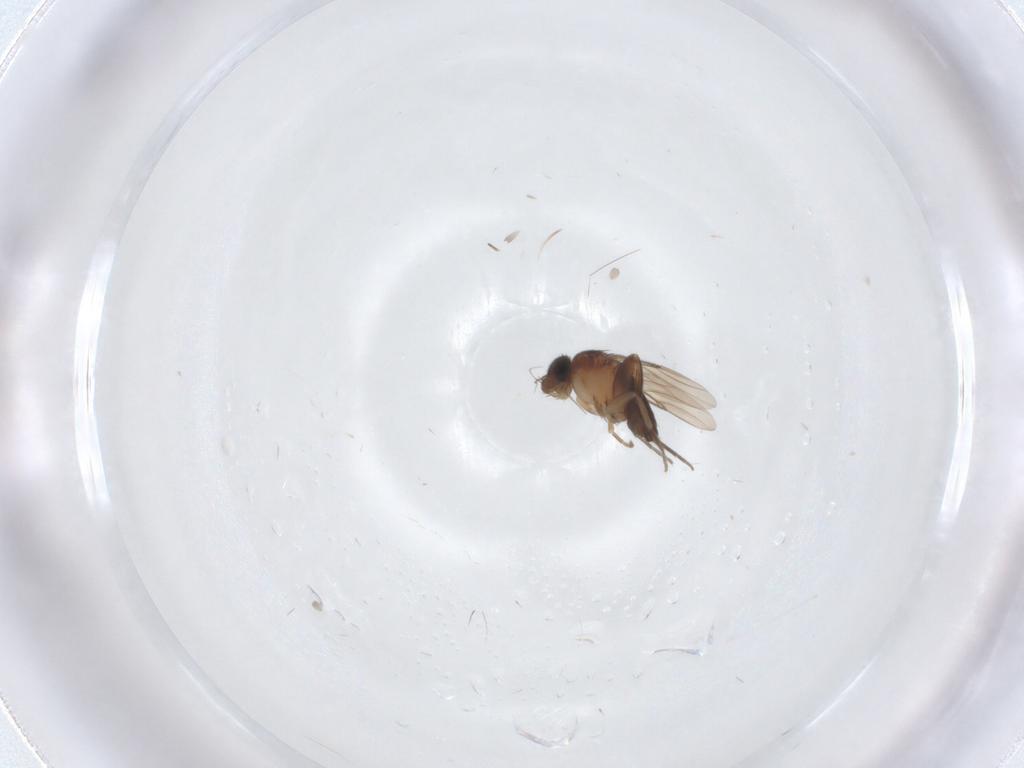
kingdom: Animalia
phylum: Arthropoda
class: Insecta
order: Diptera
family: Dolichopodidae
